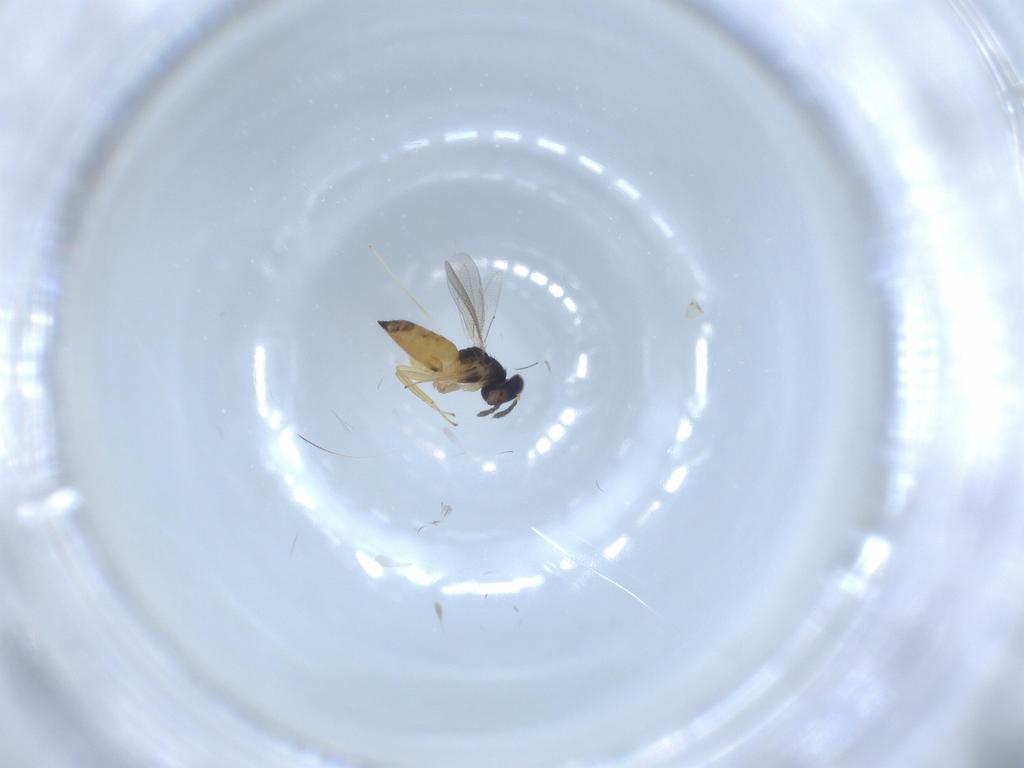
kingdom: Animalia
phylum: Arthropoda
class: Insecta
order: Hymenoptera
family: Eulophidae
